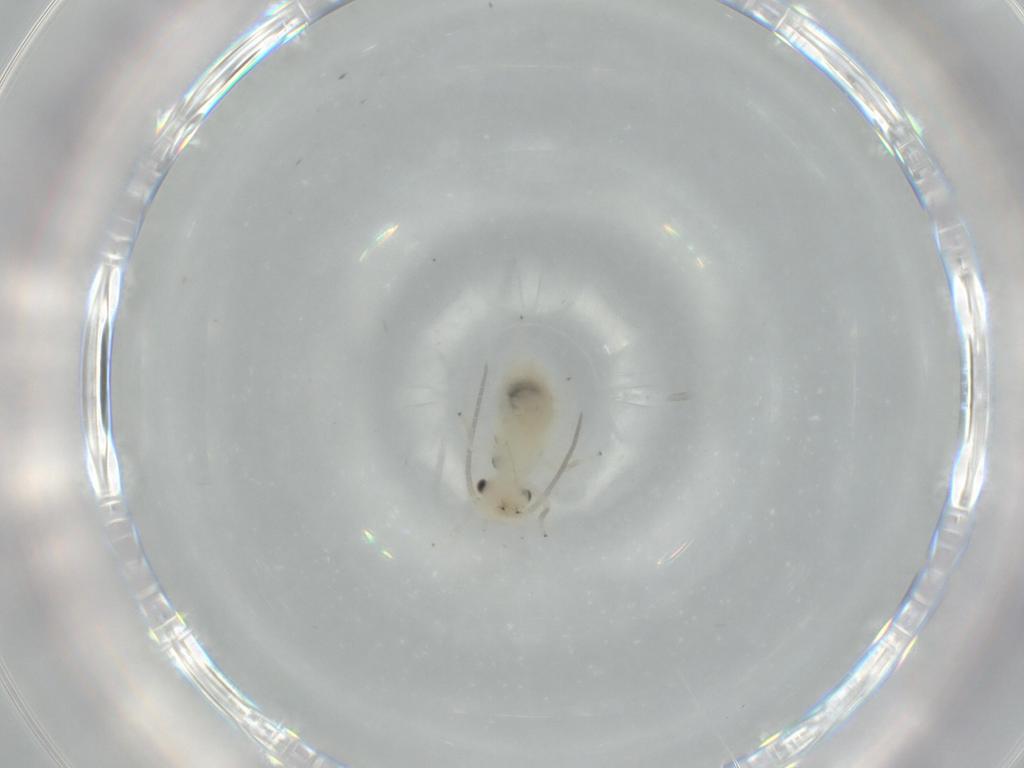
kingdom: Animalia
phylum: Arthropoda
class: Insecta
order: Psocodea
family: Caeciliusidae
